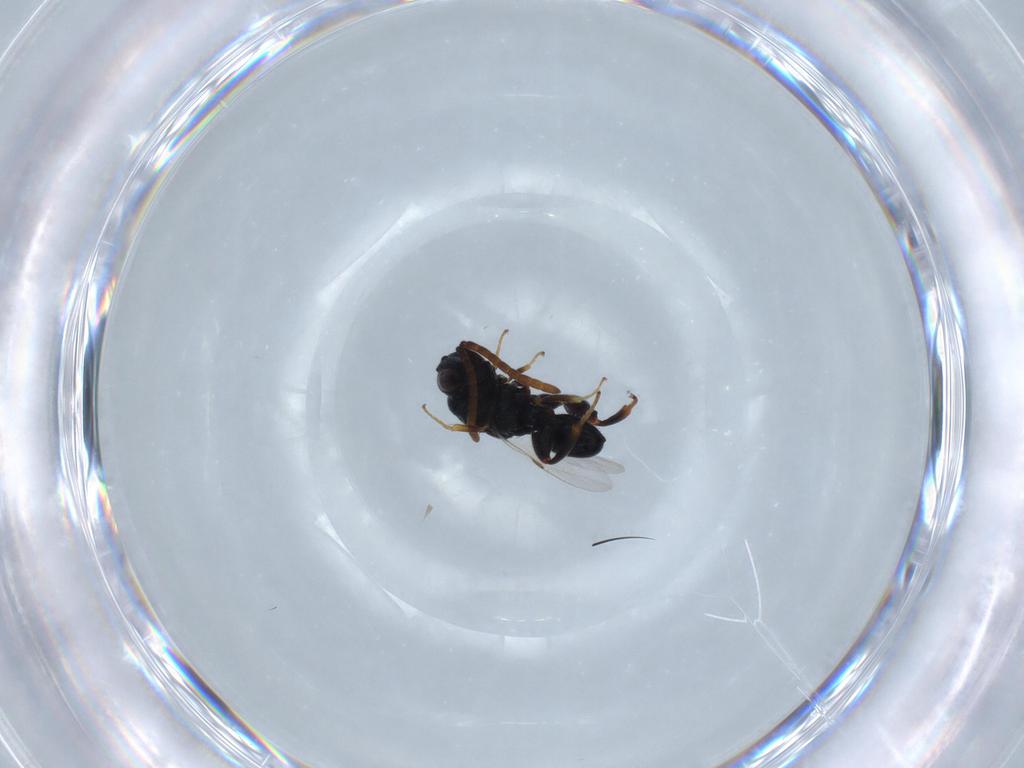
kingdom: Animalia
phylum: Arthropoda
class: Insecta
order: Hymenoptera
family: Chalcididae
